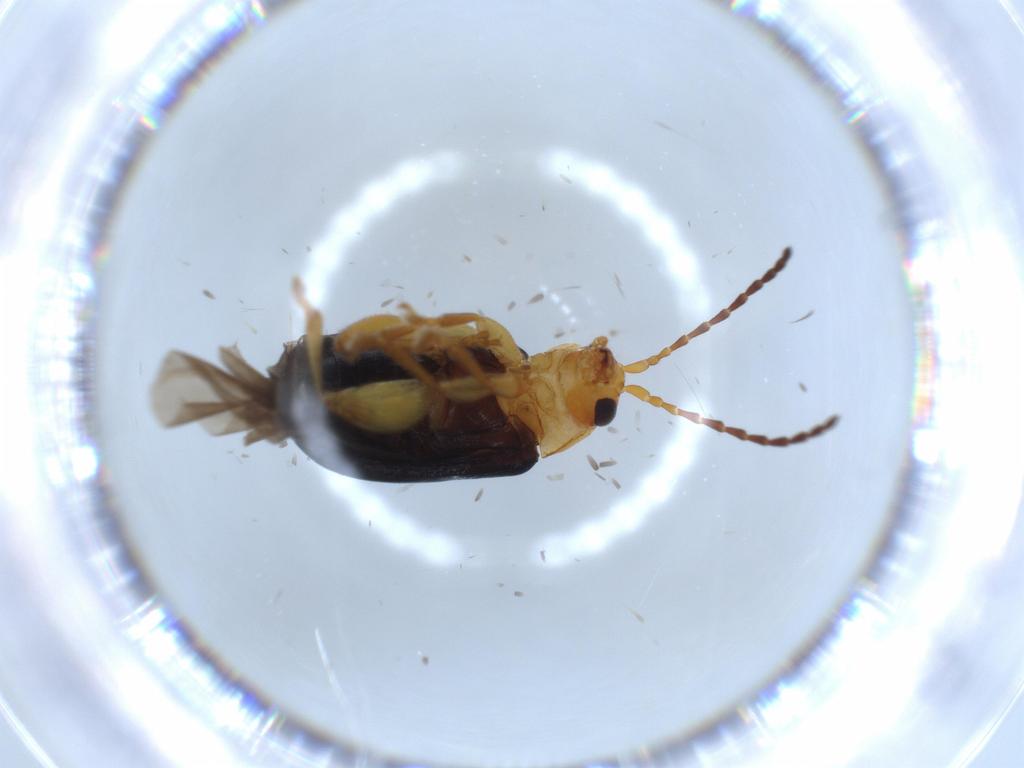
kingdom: Animalia
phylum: Arthropoda
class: Insecta
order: Coleoptera
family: Chrysomelidae
